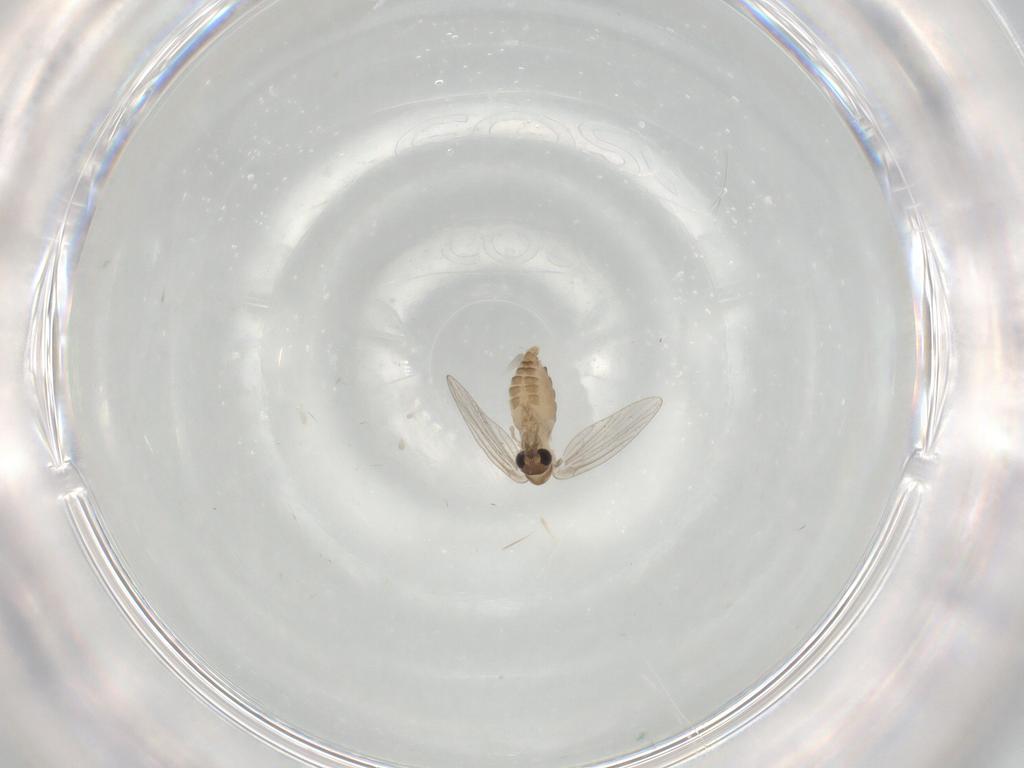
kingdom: Animalia
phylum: Arthropoda
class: Insecta
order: Diptera
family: Psychodidae
